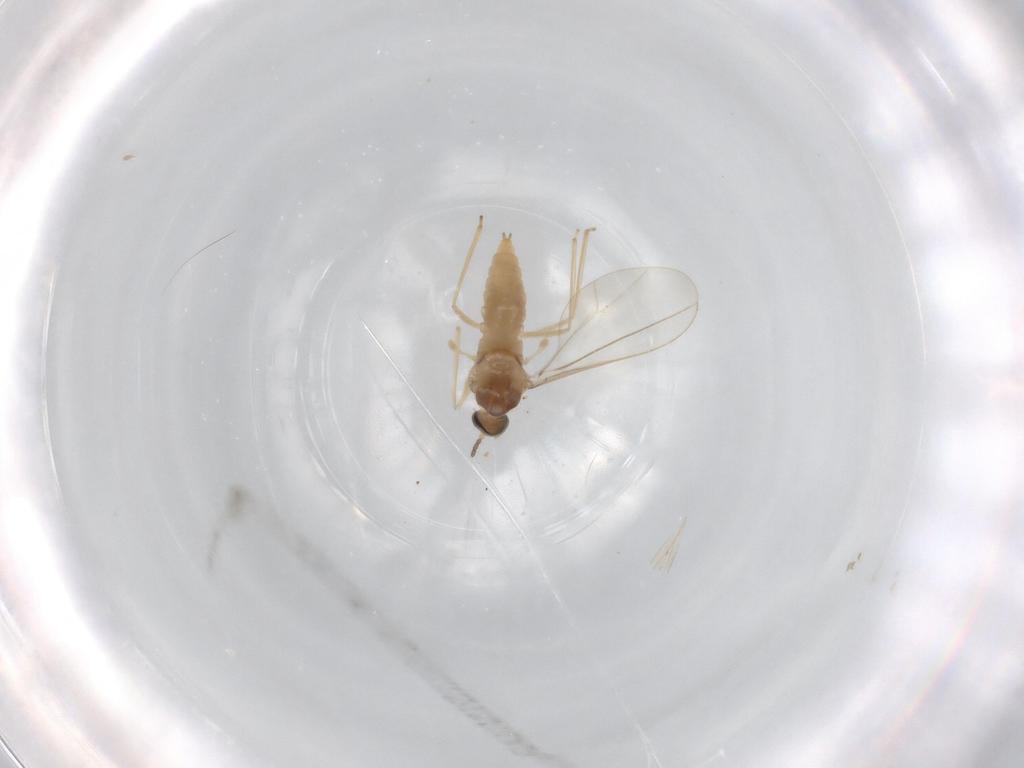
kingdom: Animalia
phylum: Arthropoda
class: Insecta
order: Diptera
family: Cecidomyiidae
